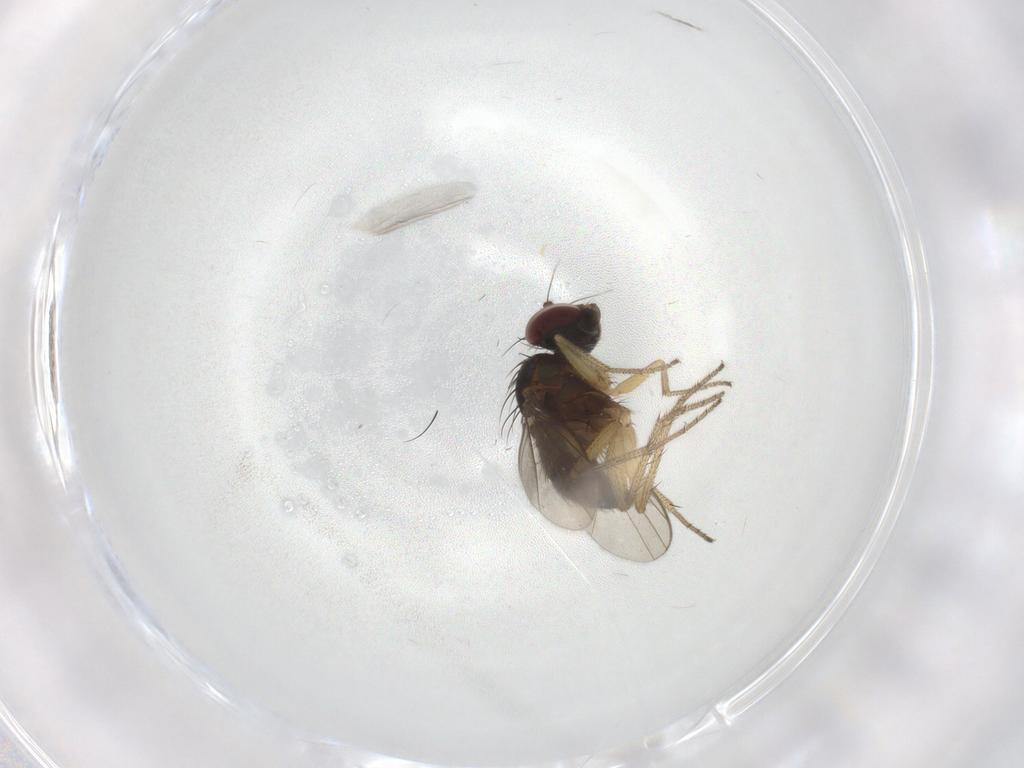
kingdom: Animalia
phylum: Arthropoda
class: Insecta
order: Diptera
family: Chironomidae
